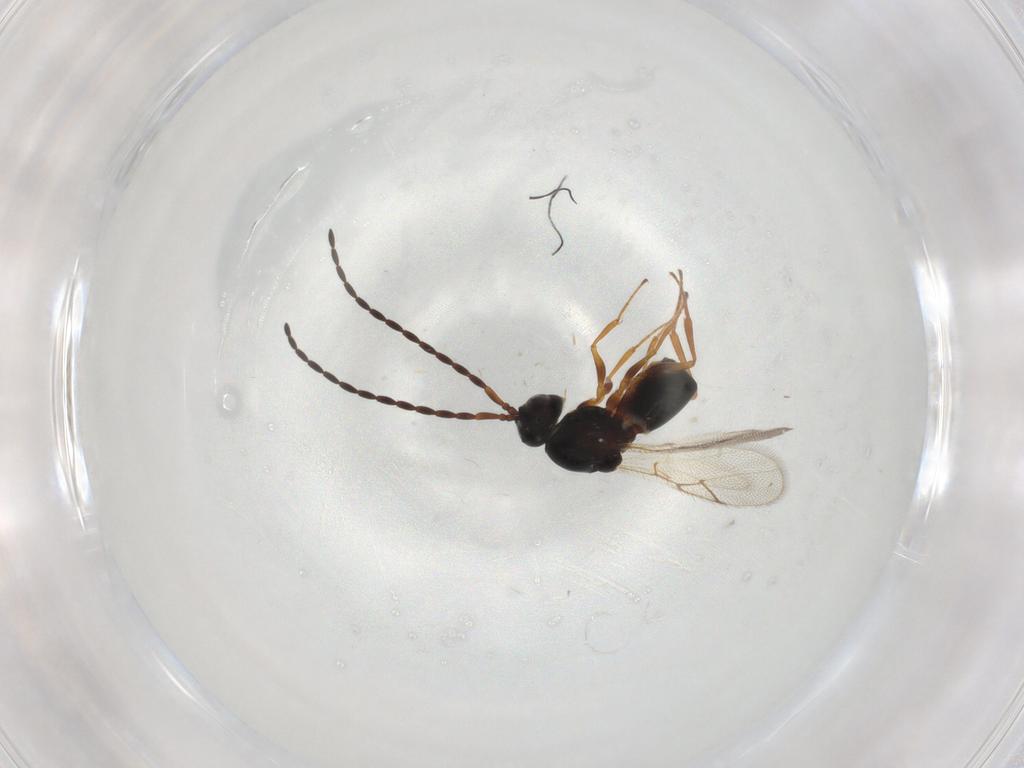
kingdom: Animalia
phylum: Arthropoda
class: Insecta
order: Hymenoptera
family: Figitidae
